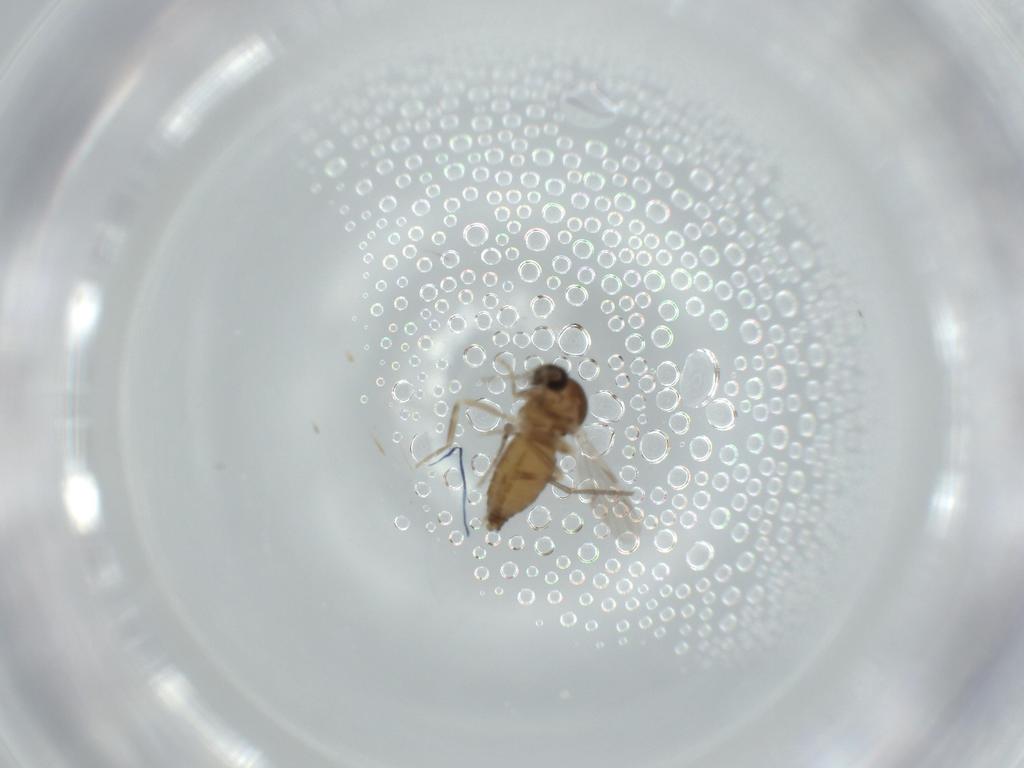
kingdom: Animalia
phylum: Arthropoda
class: Insecta
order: Diptera
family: Ceratopogonidae
